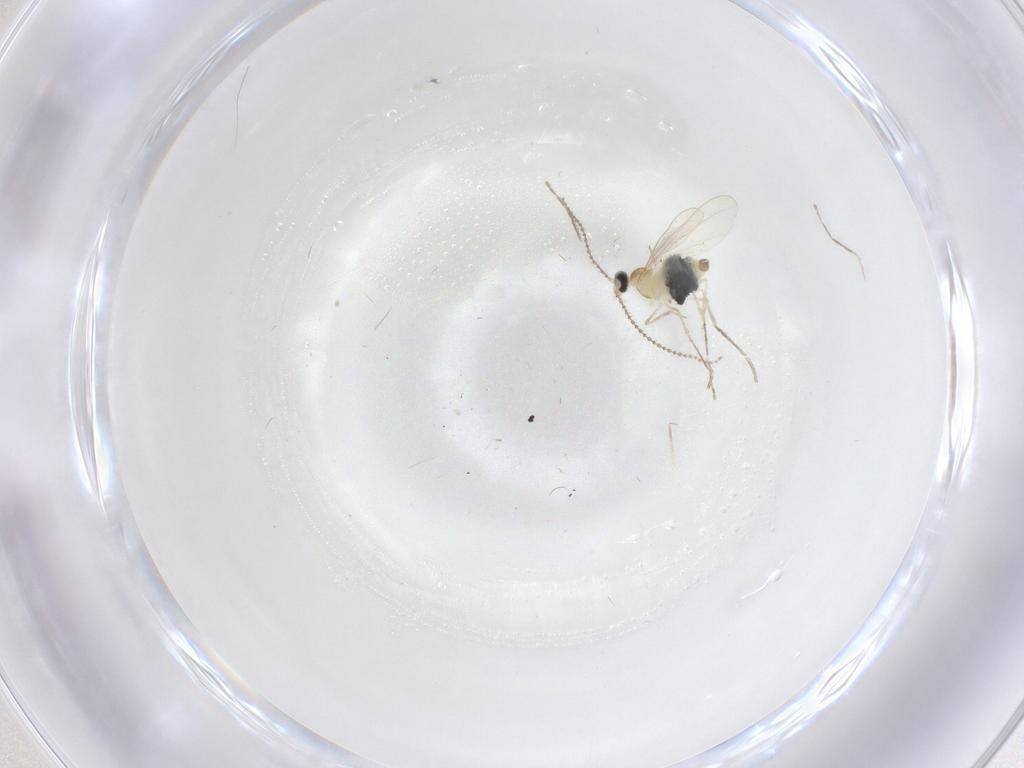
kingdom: Animalia
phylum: Arthropoda
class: Insecta
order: Diptera
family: Cecidomyiidae
